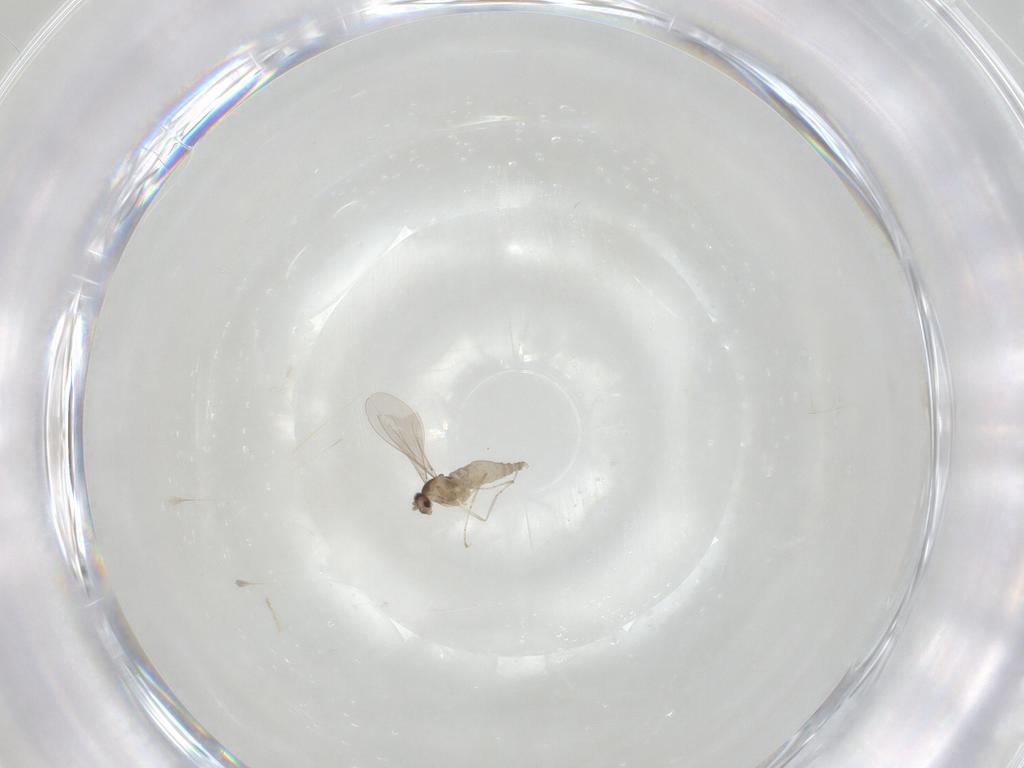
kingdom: Animalia
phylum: Arthropoda
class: Insecta
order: Diptera
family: Cecidomyiidae
